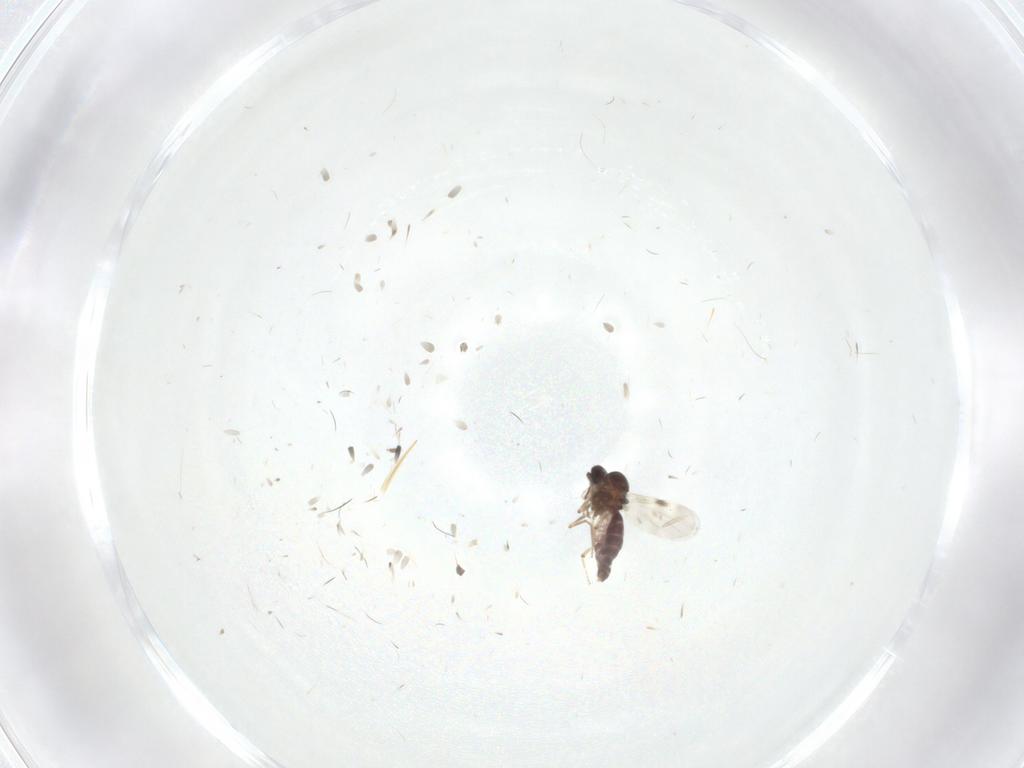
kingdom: Animalia
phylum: Arthropoda
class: Insecta
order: Diptera
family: Phoridae
